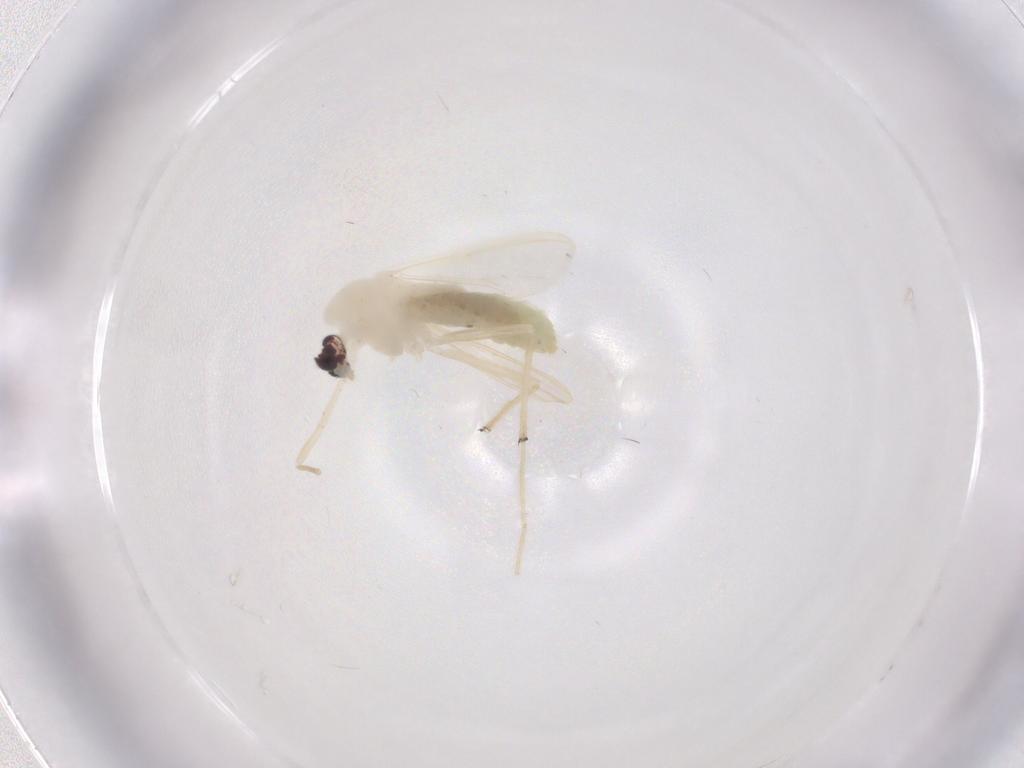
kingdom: Animalia
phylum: Arthropoda
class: Insecta
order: Diptera
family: Chironomidae
